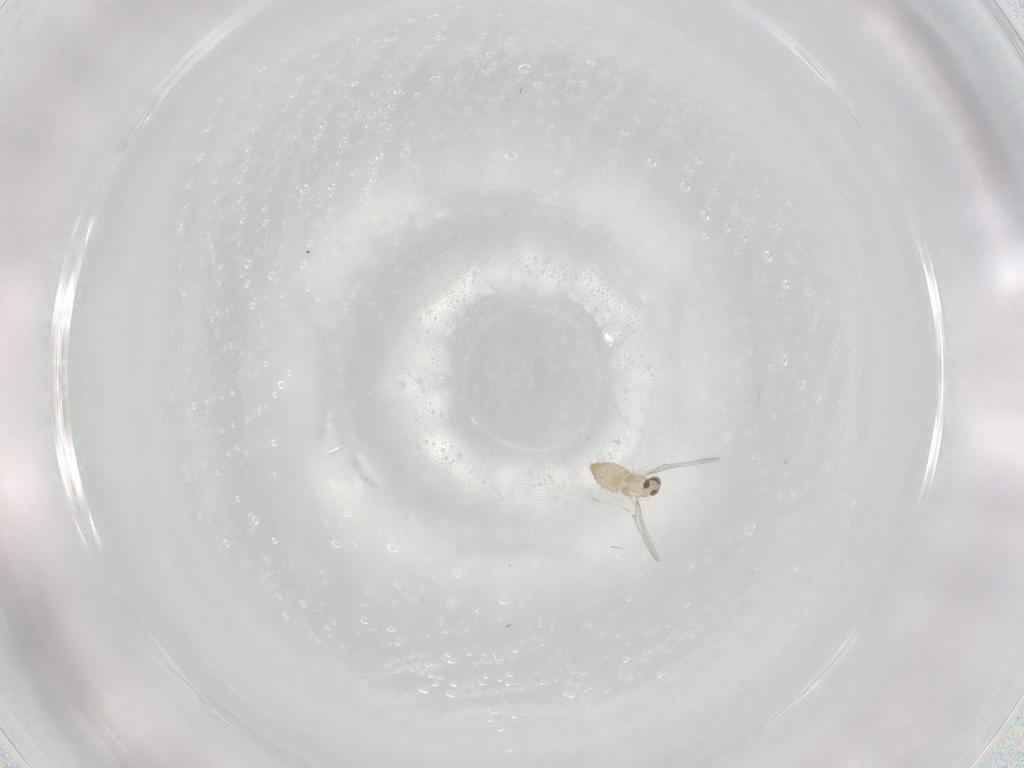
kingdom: Animalia
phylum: Arthropoda
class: Insecta
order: Diptera
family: Cecidomyiidae
